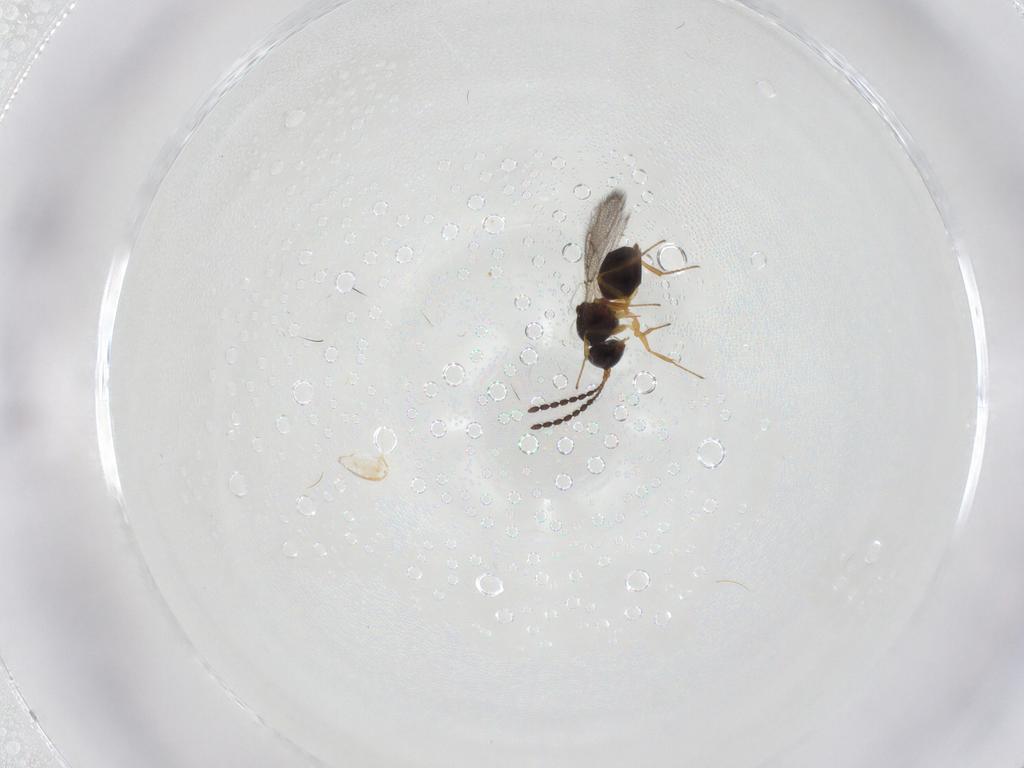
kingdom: Animalia
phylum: Arthropoda
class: Insecta
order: Hymenoptera
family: Figitidae
